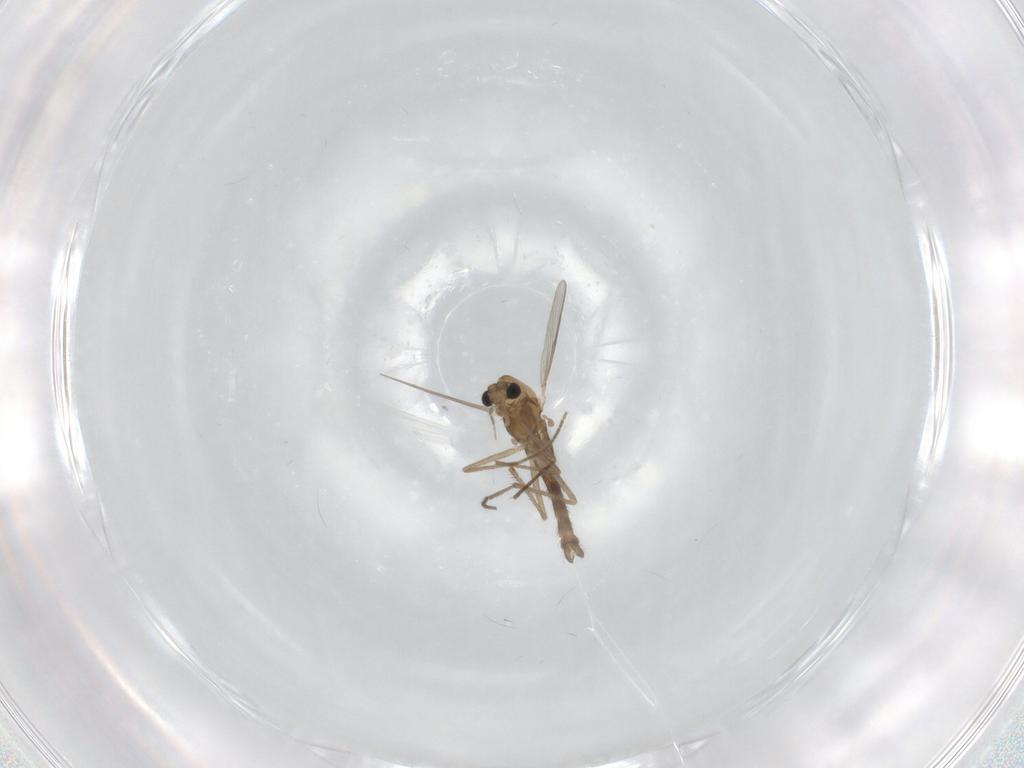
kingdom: Animalia
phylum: Arthropoda
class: Insecta
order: Diptera
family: Chironomidae
